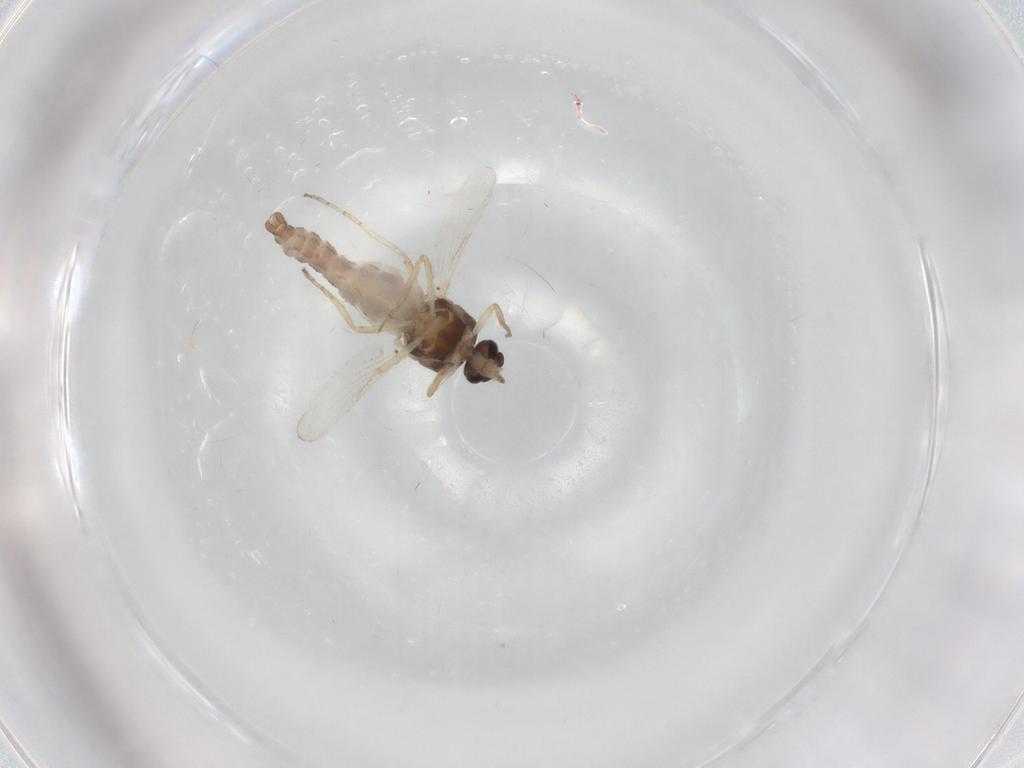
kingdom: Animalia
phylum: Arthropoda
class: Insecta
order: Diptera
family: Ceratopogonidae
